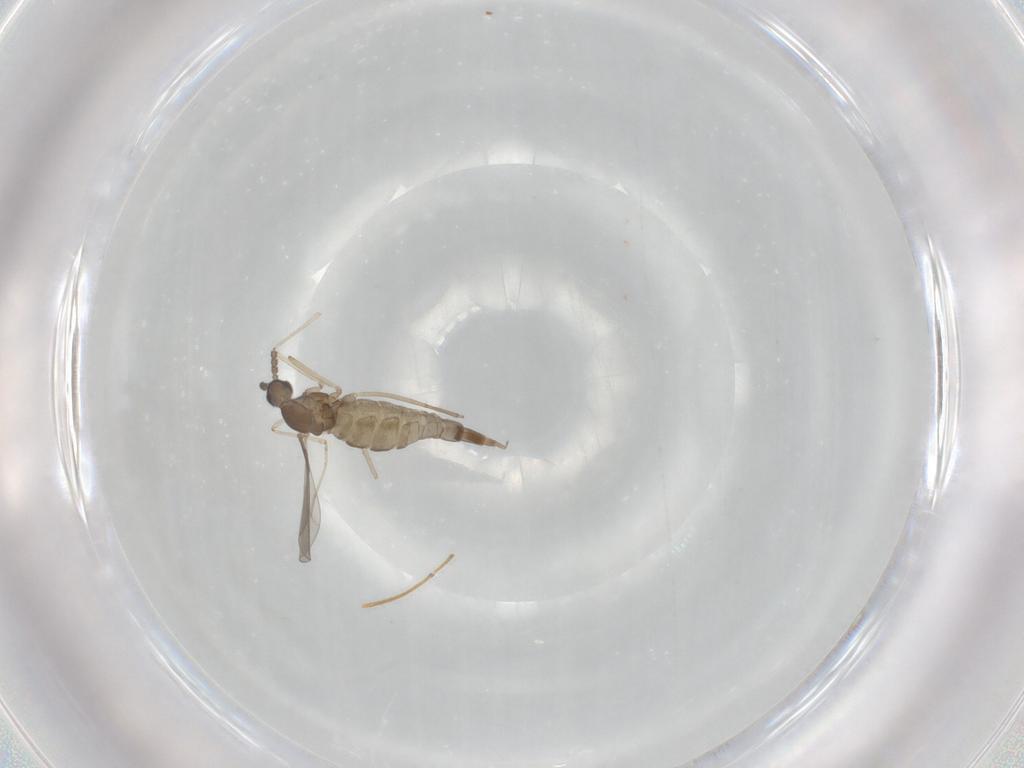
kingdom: Animalia
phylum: Arthropoda
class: Insecta
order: Diptera
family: Cecidomyiidae
